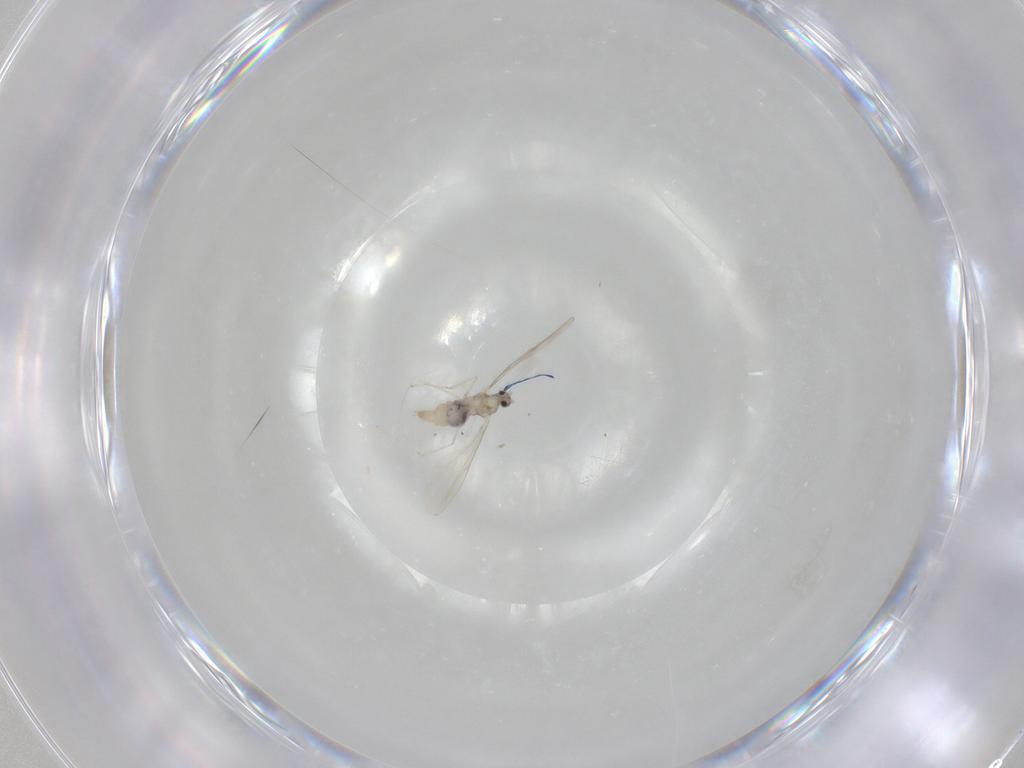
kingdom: Animalia
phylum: Arthropoda
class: Insecta
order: Diptera
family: Cecidomyiidae
